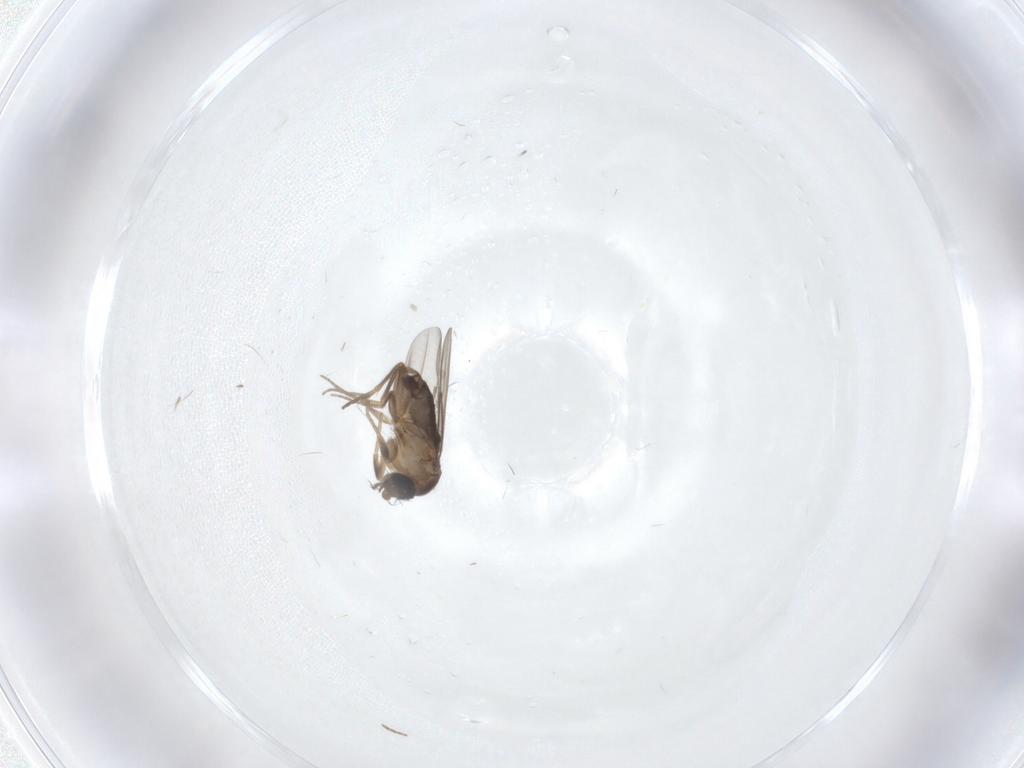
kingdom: Animalia
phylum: Arthropoda
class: Insecta
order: Diptera
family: Phoridae
